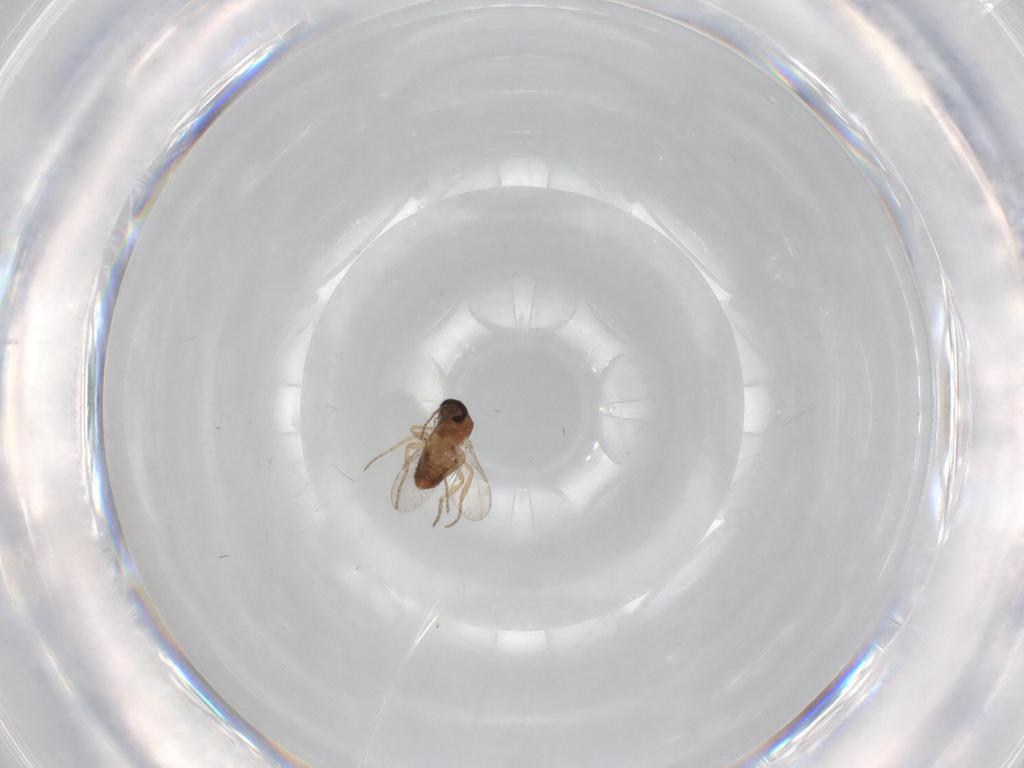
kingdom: Animalia
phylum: Arthropoda
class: Insecta
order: Diptera
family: Ceratopogonidae
